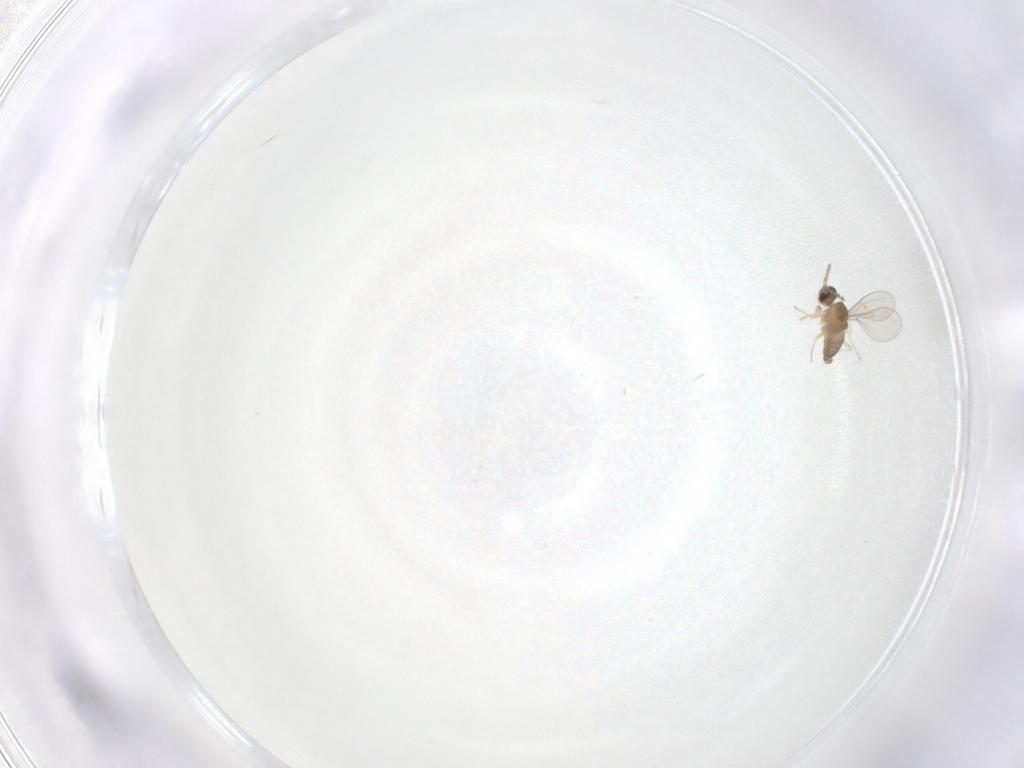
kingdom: Animalia
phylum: Arthropoda
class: Insecta
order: Diptera
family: Cecidomyiidae
